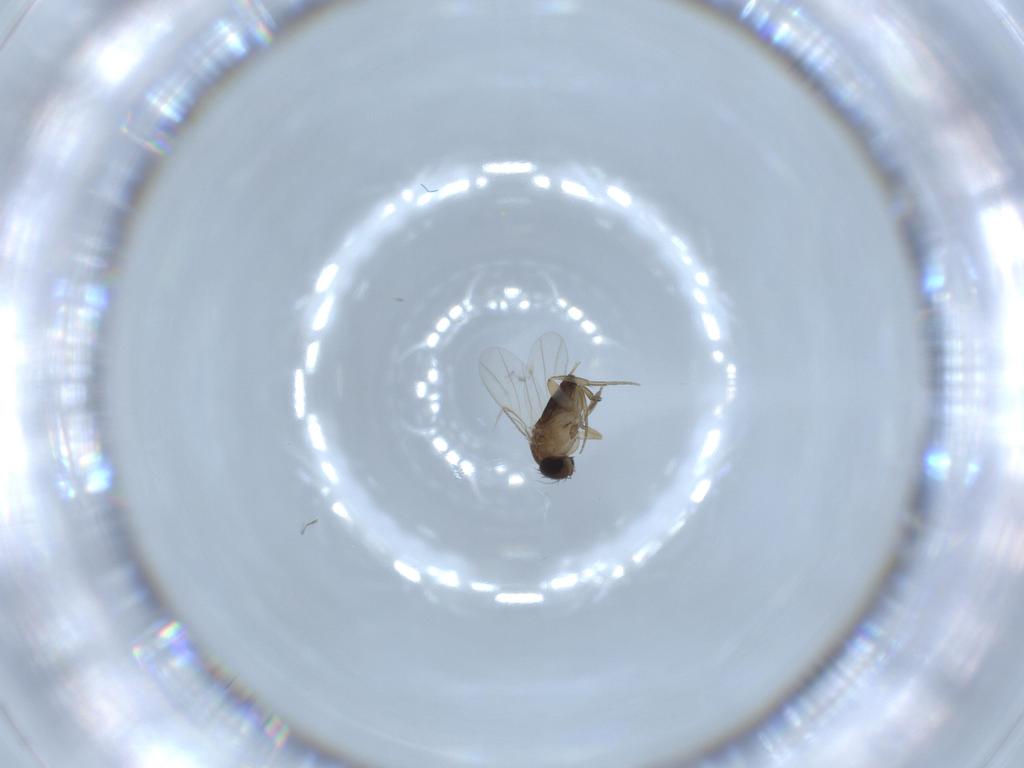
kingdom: Animalia
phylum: Arthropoda
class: Insecta
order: Diptera
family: Phoridae
